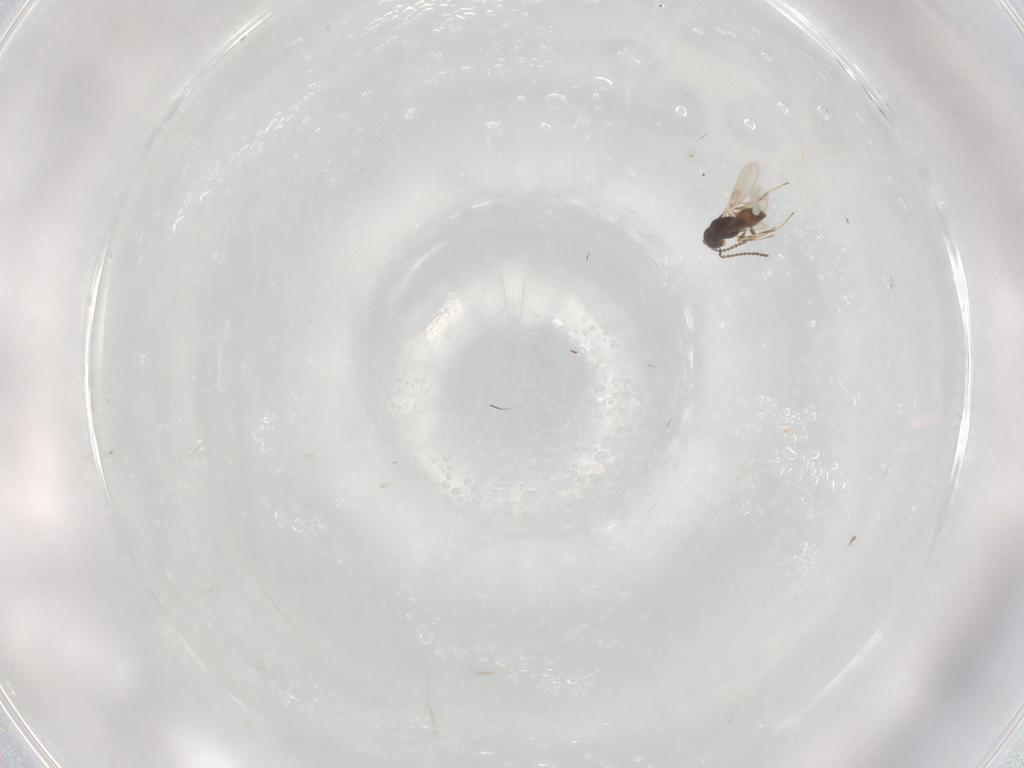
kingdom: Animalia
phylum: Arthropoda
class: Insecta
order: Hymenoptera
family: Scelionidae
